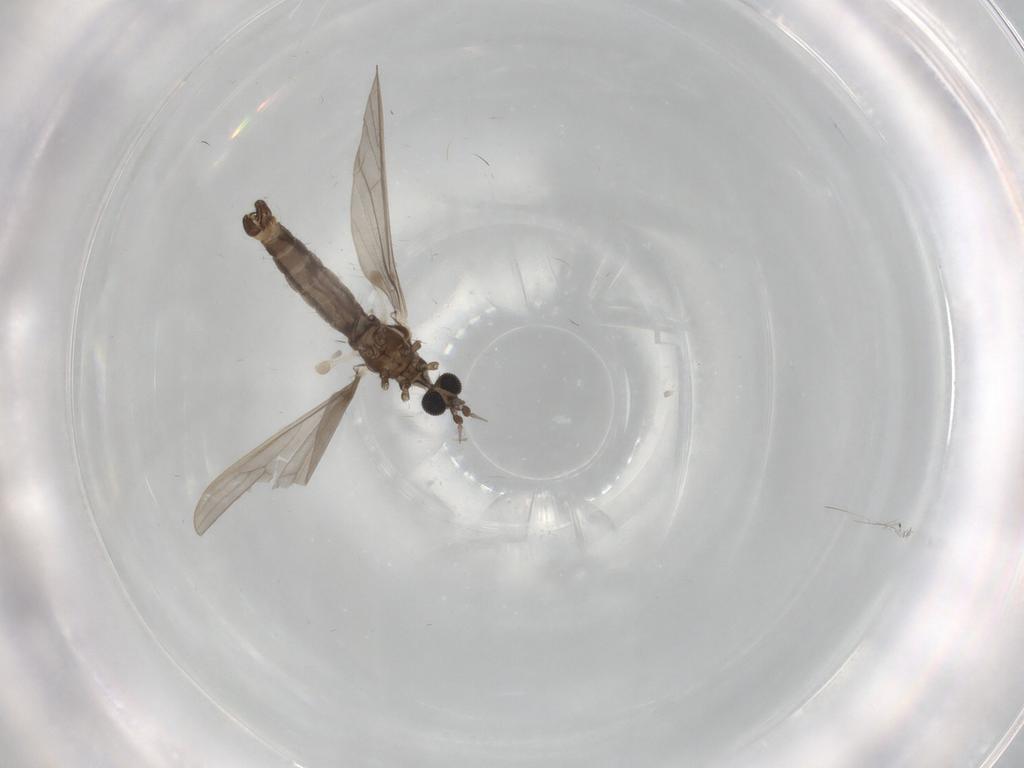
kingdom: Animalia
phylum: Arthropoda
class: Insecta
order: Diptera
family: Limoniidae
